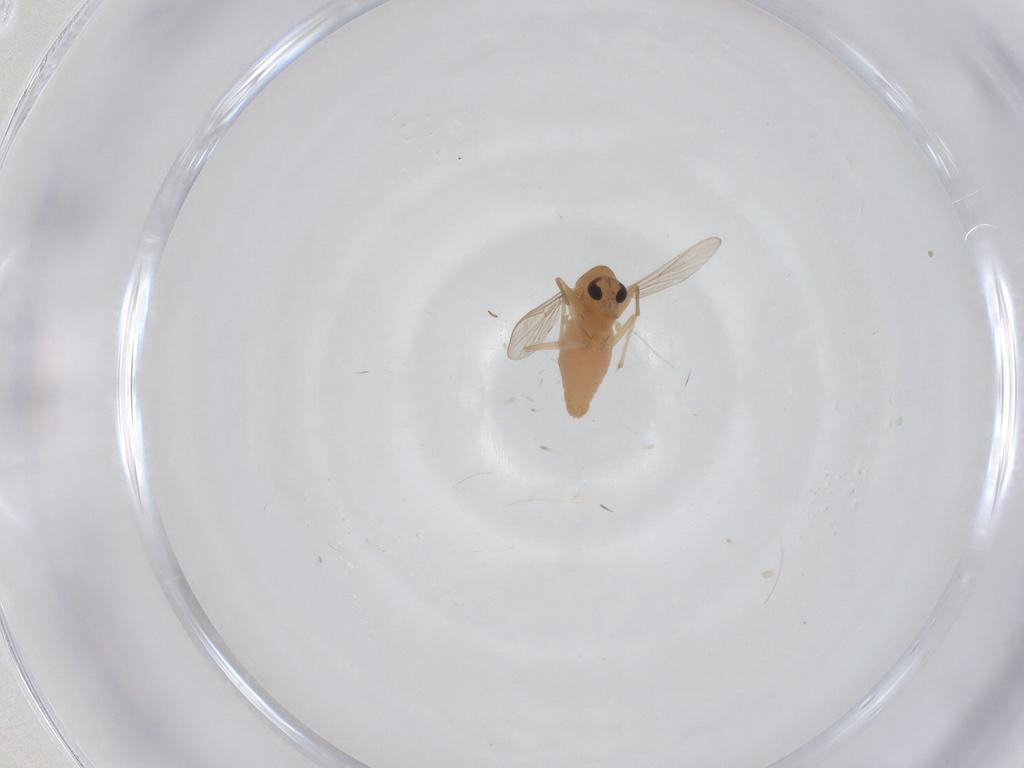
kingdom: Animalia
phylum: Arthropoda
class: Insecta
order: Diptera
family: Chironomidae
